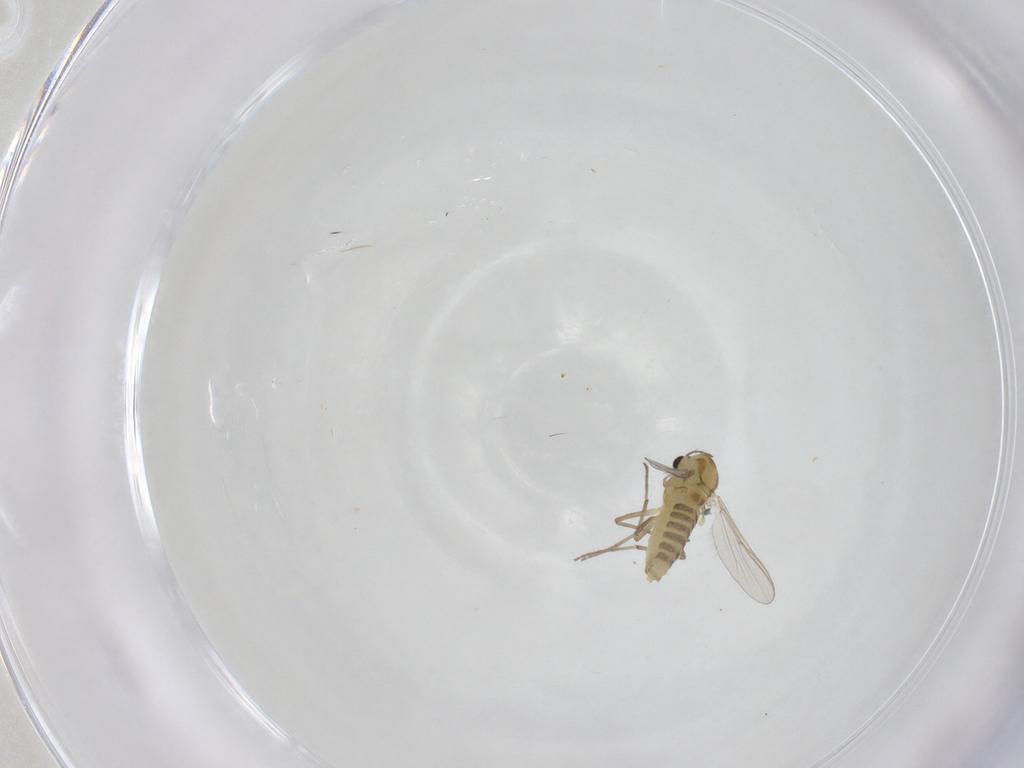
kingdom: Animalia
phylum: Arthropoda
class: Insecta
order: Diptera
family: Chironomidae
